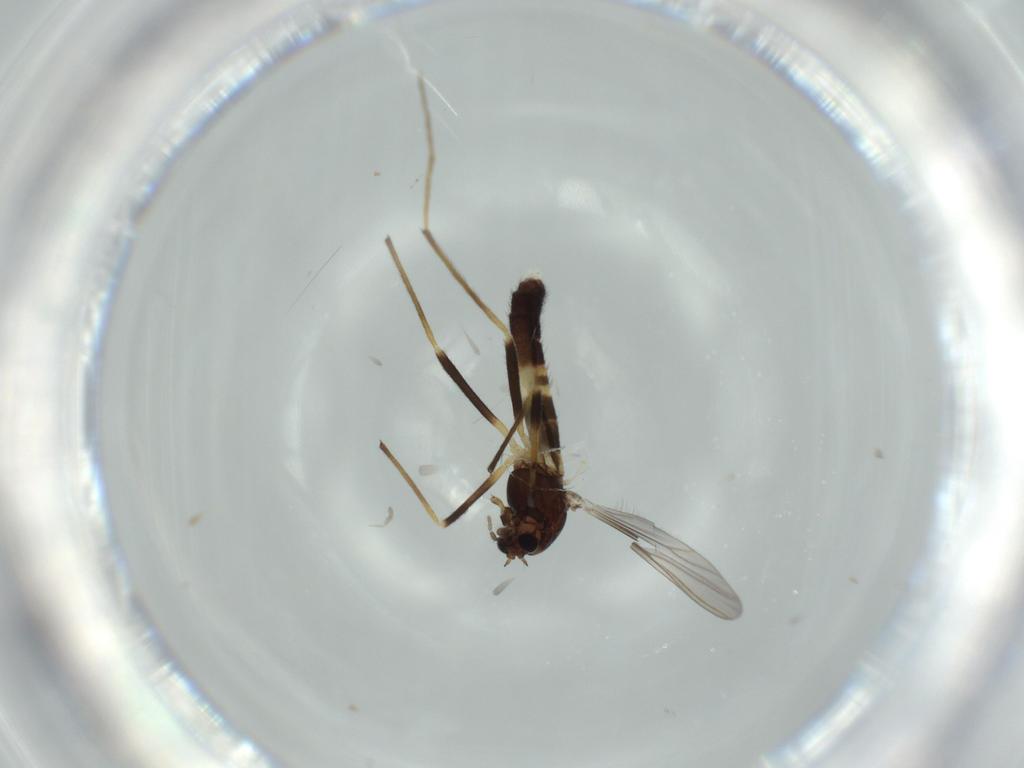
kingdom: Animalia
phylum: Arthropoda
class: Insecta
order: Diptera
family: Chironomidae
